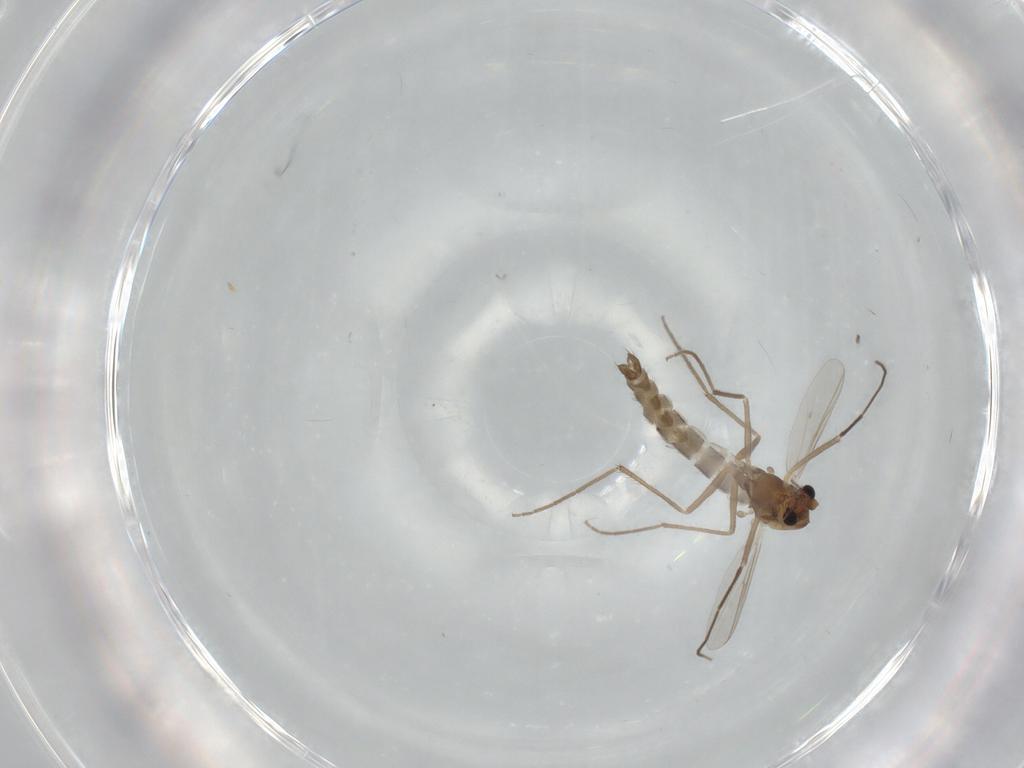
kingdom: Animalia
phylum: Arthropoda
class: Insecta
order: Diptera
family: Chironomidae
